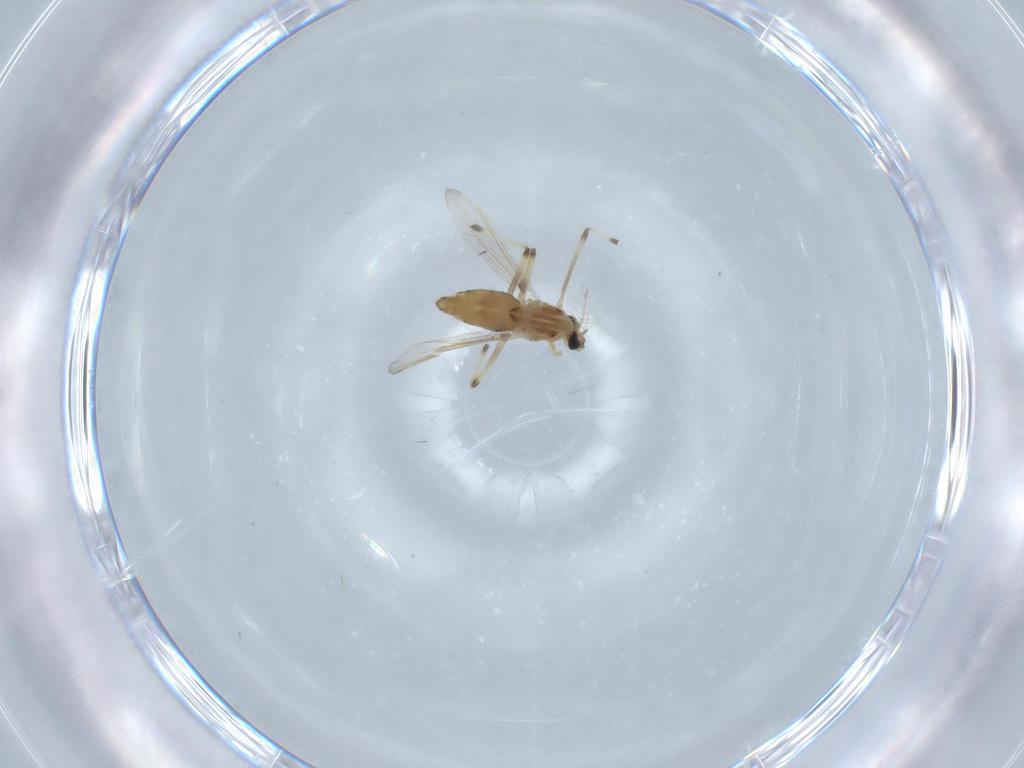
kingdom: Animalia
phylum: Arthropoda
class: Insecta
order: Diptera
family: Chironomidae
